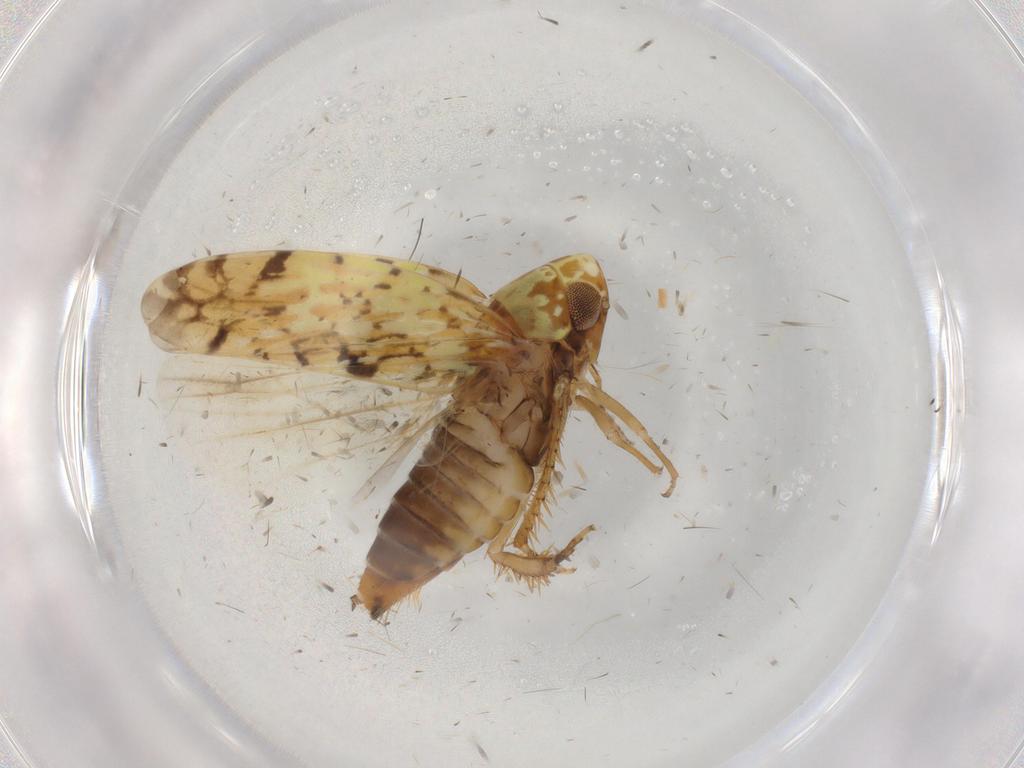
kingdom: Animalia
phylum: Arthropoda
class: Insecta
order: Hemiptera
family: Cicadellidae
